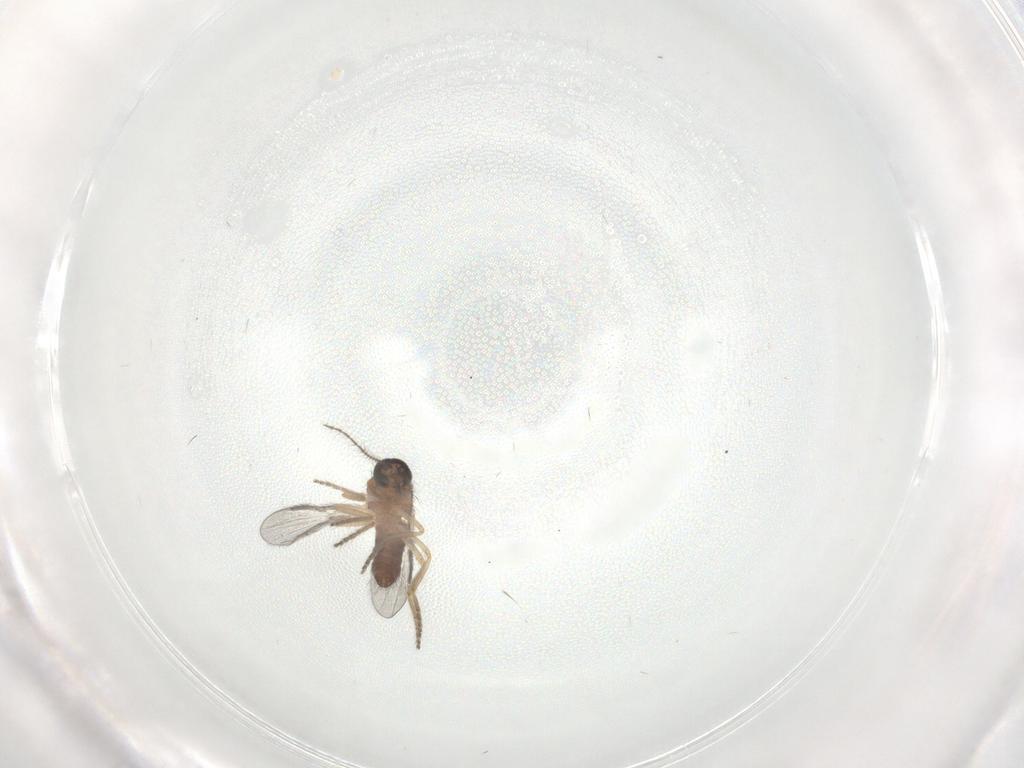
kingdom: Animalia
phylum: Arthropoda
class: Insecta
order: Diptera
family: Ceratopogonidae
